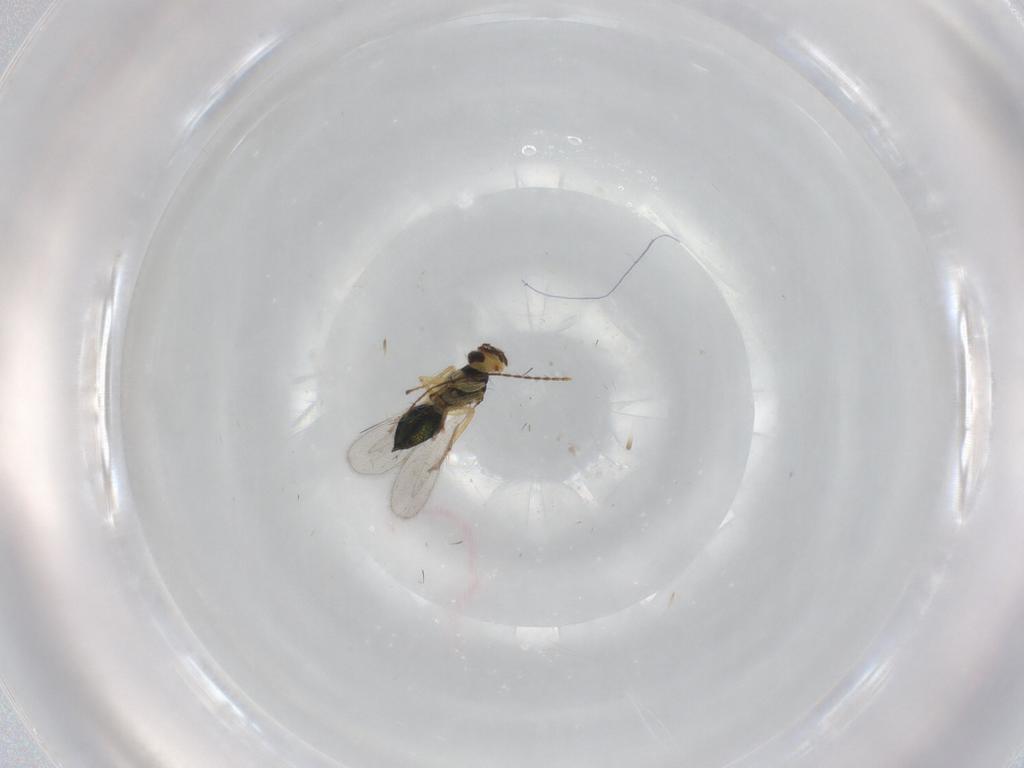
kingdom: Animalia
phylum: Arthropoda
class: Insecta
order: Hymenoptera
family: Eulophidae
